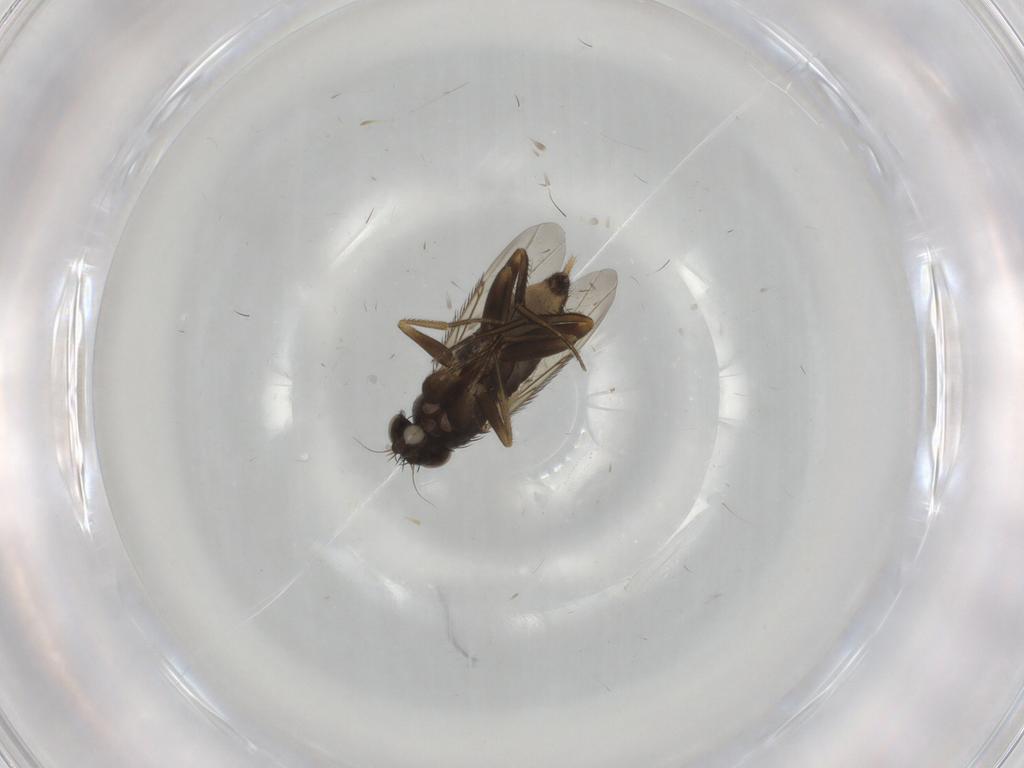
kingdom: Animalia
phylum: Arthropoda
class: Insecta
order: Diptera
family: Phoridae
